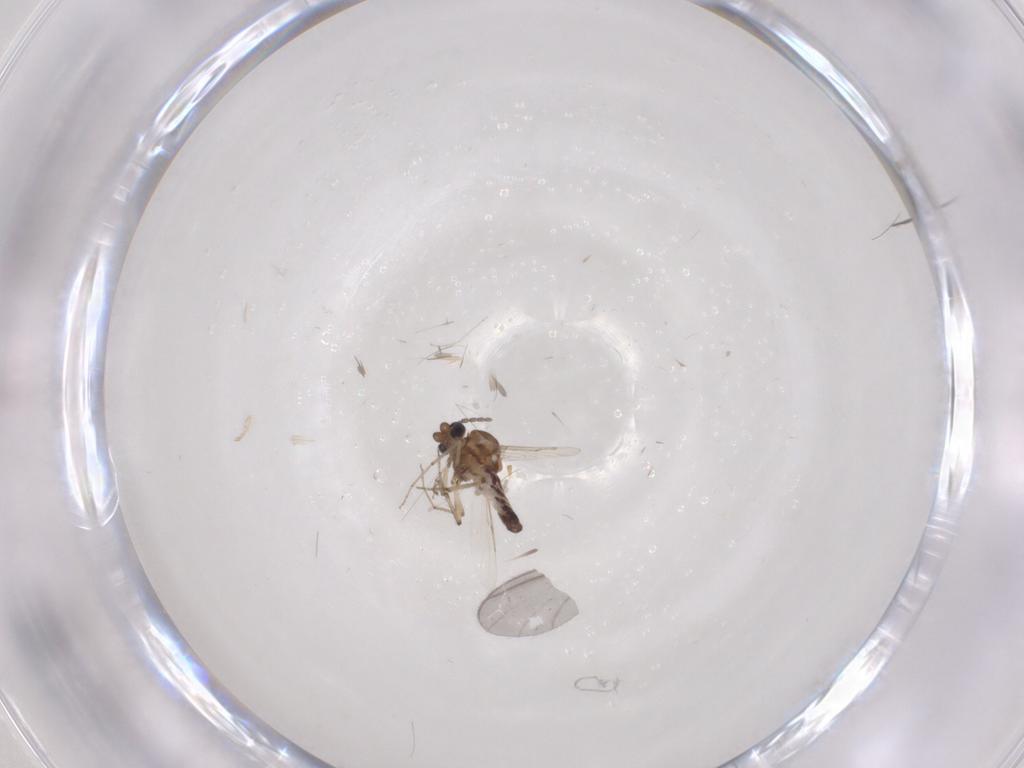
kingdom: Animalia
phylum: Arthropoda
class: Insecta
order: Diptera
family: Cecidomyiidae
